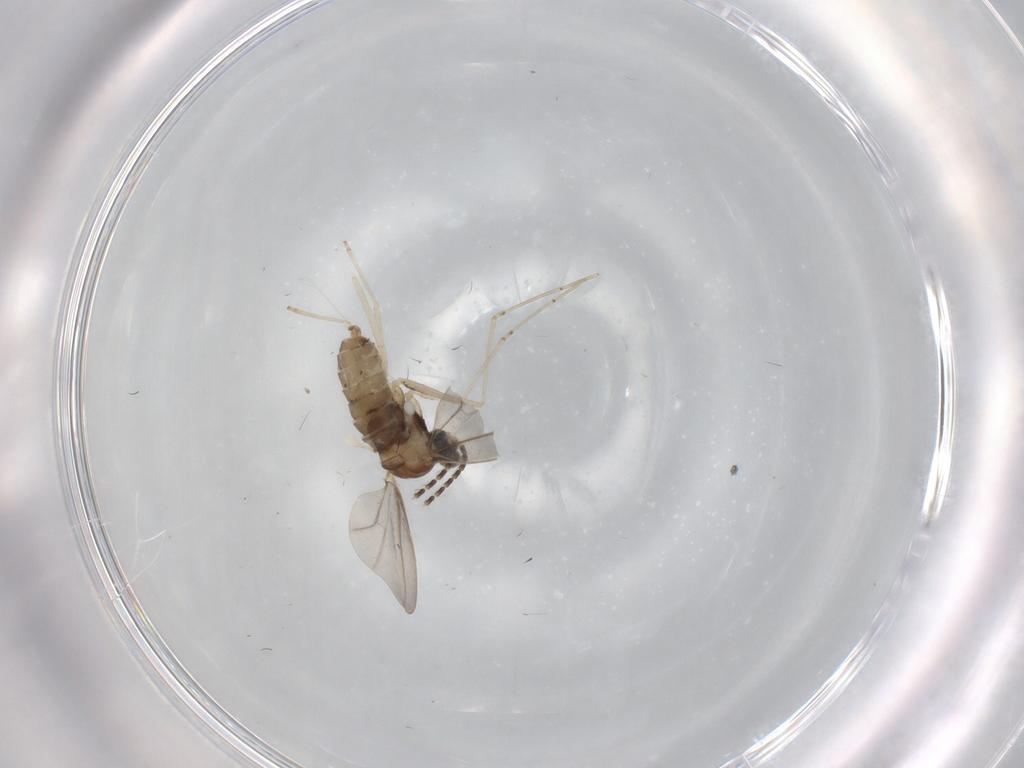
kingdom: Animalia
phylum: Arthropoda
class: Insecta
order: Diptera
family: Cecidomyiidae
